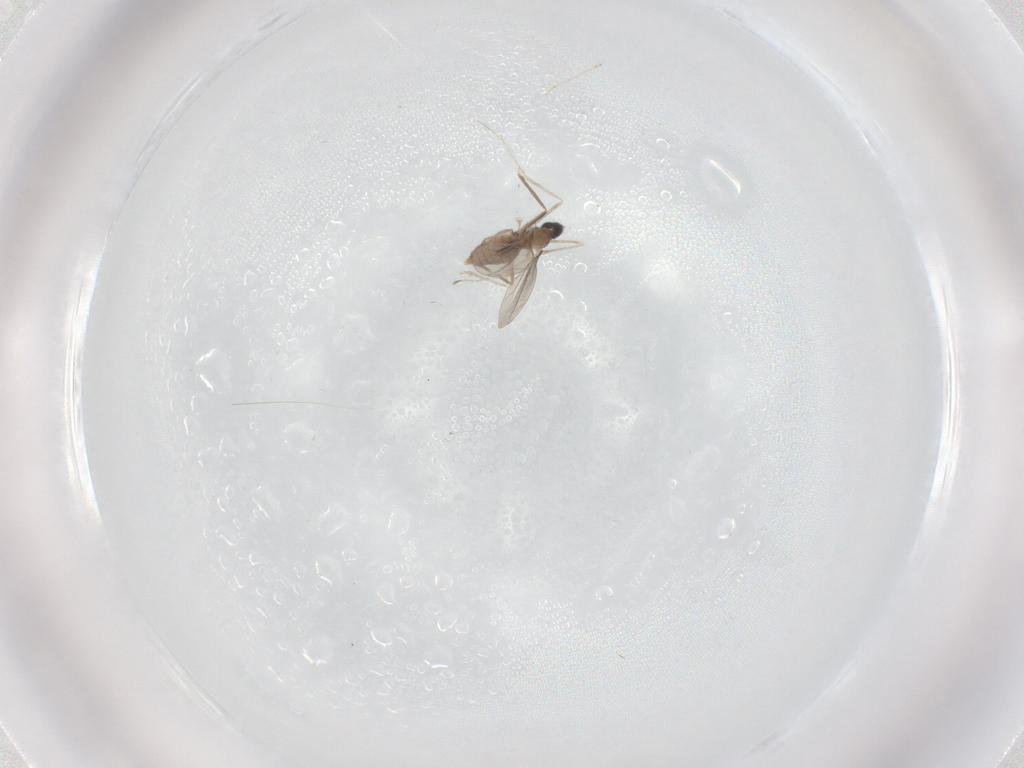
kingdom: Animalia
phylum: Arthropoda
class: Insecta
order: Diptera
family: Cecidomyiidae
